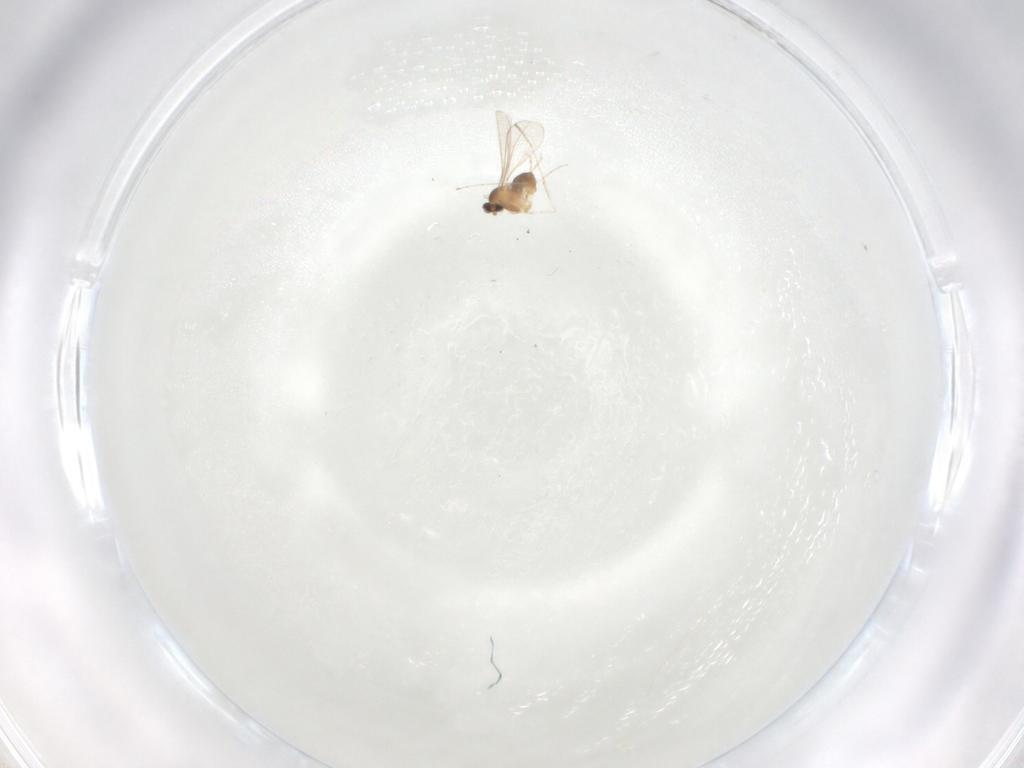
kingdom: Animalia
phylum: Arthropoda
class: Insecta
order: Diptera
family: Cecidomyiidae
